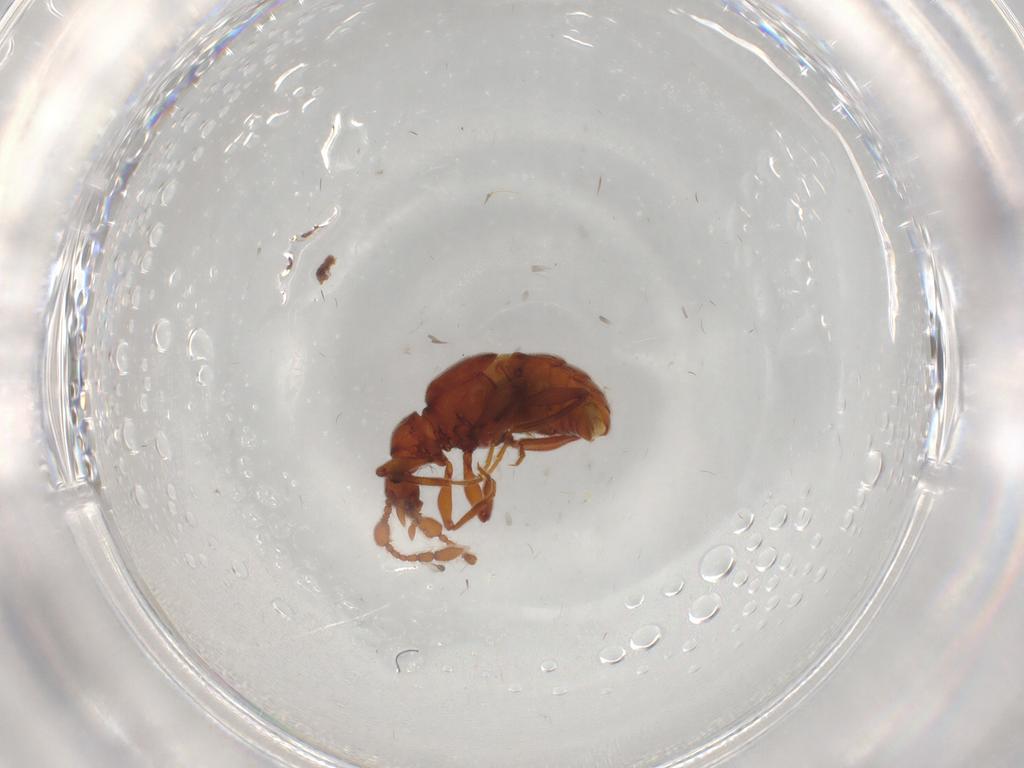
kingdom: Animalia
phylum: Arthropoda
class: Insecta
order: Coleoptera
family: Staphylinidae
